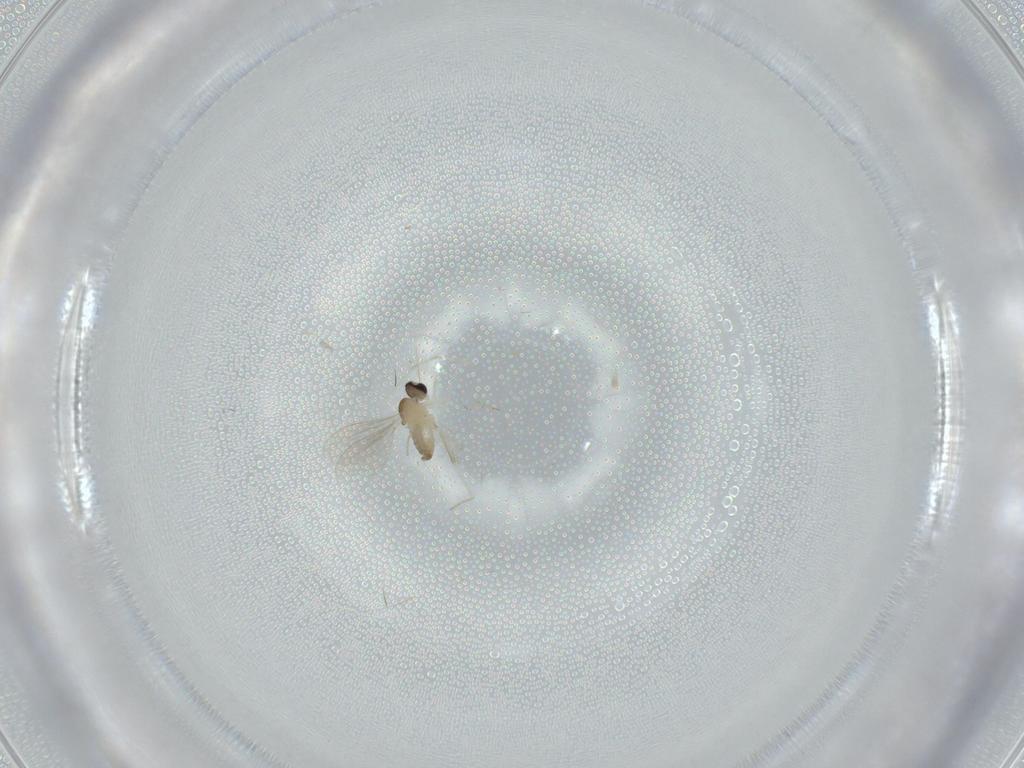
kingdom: Animalia
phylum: Arthropoda
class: Insecta
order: Diptera
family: Cecidomyiidae
